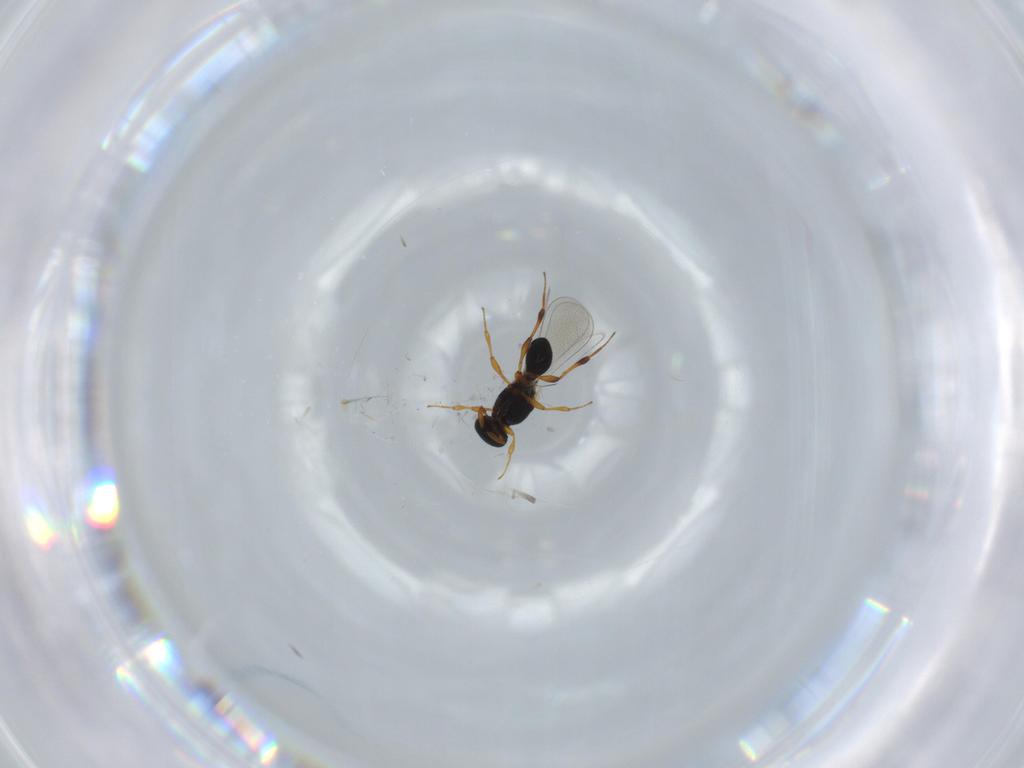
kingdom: Animalia
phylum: Arthropoda
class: Insecta
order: Hymenoptera
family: Platygastridae
